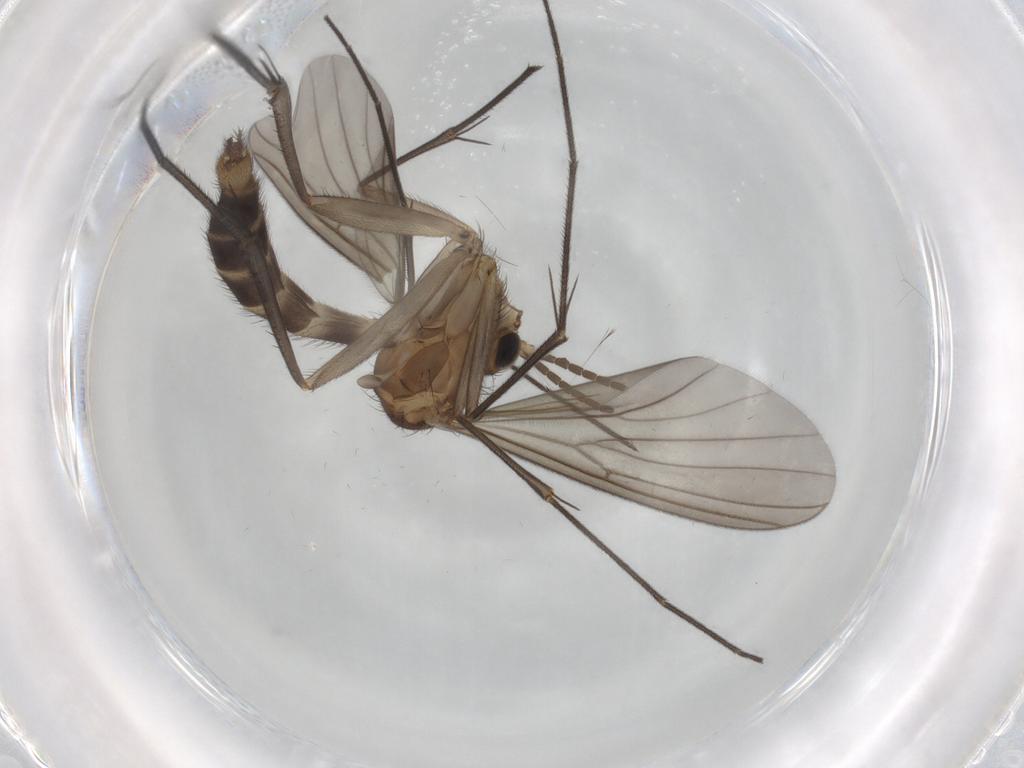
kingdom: Animalia
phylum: Arthropoda
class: Insecta
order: Diptera
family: Mycetophilidae
